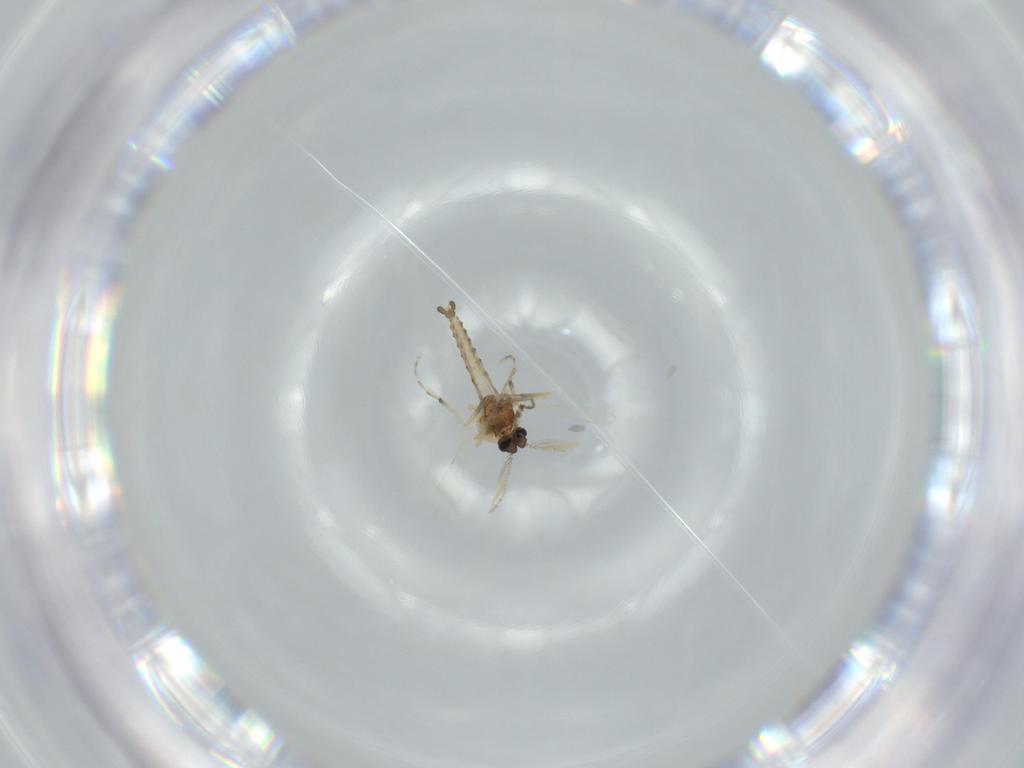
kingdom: Animalia
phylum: Arthropoda
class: Insecta
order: Diptera
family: Ceratopogonidae
